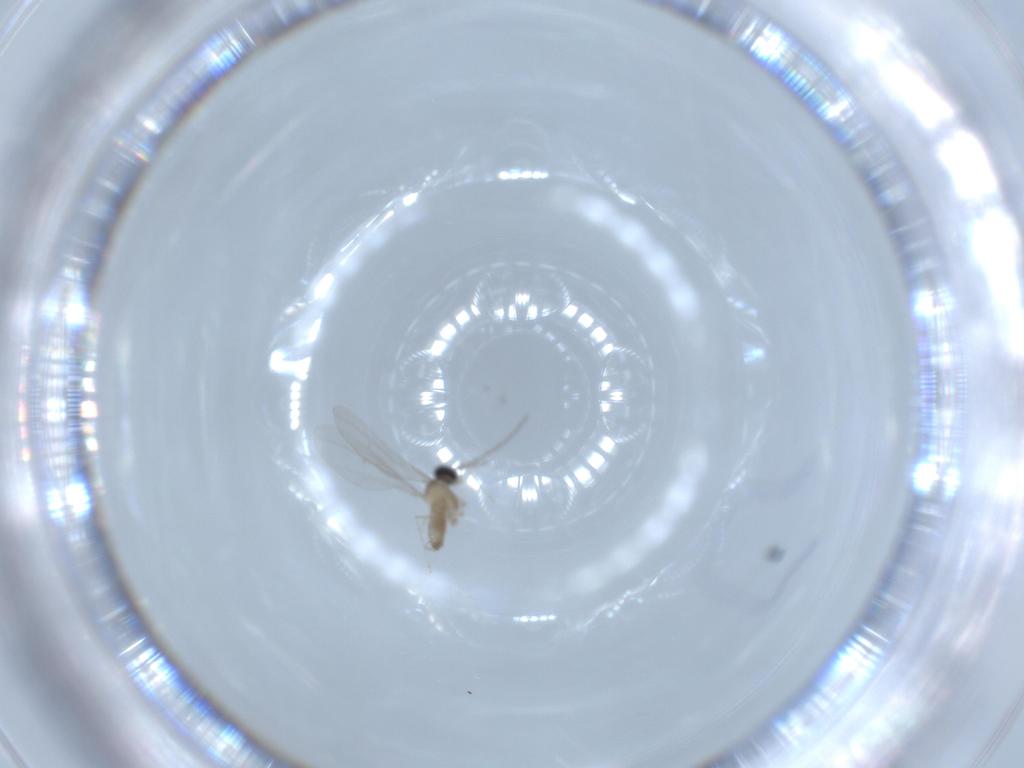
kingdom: Animalia
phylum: Arthropoda
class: Insecta
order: Diptera
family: Cecidomyiidae
